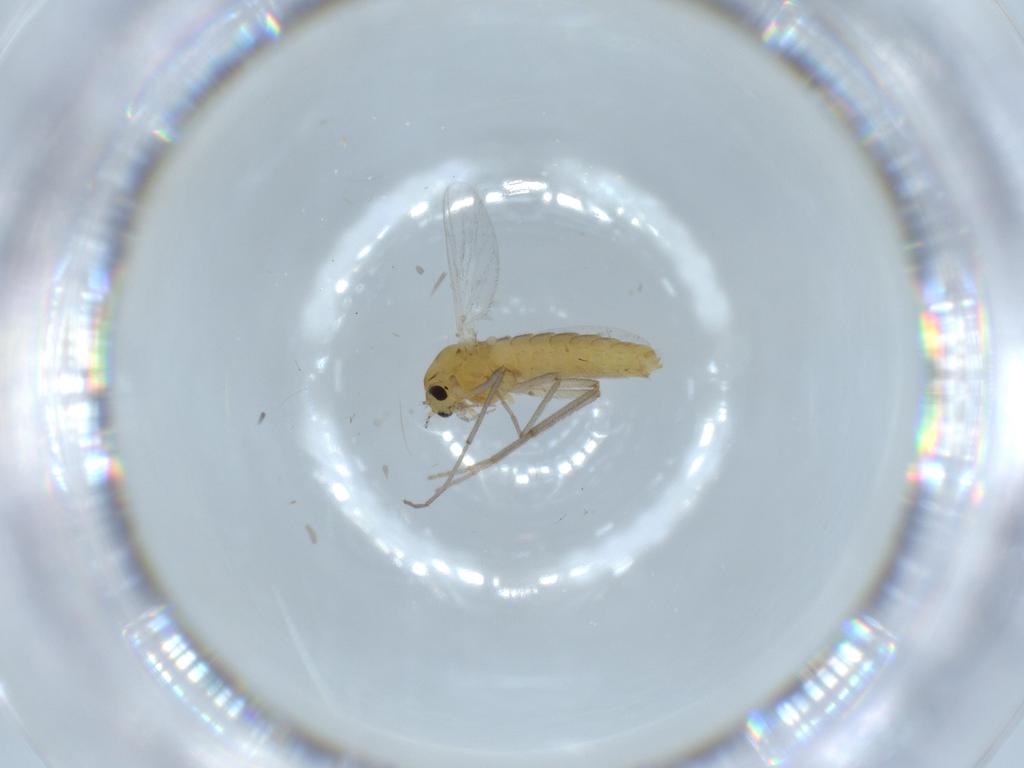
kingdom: Animalia
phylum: Arthropoda
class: Insecta
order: Diptera
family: Chironomidae
